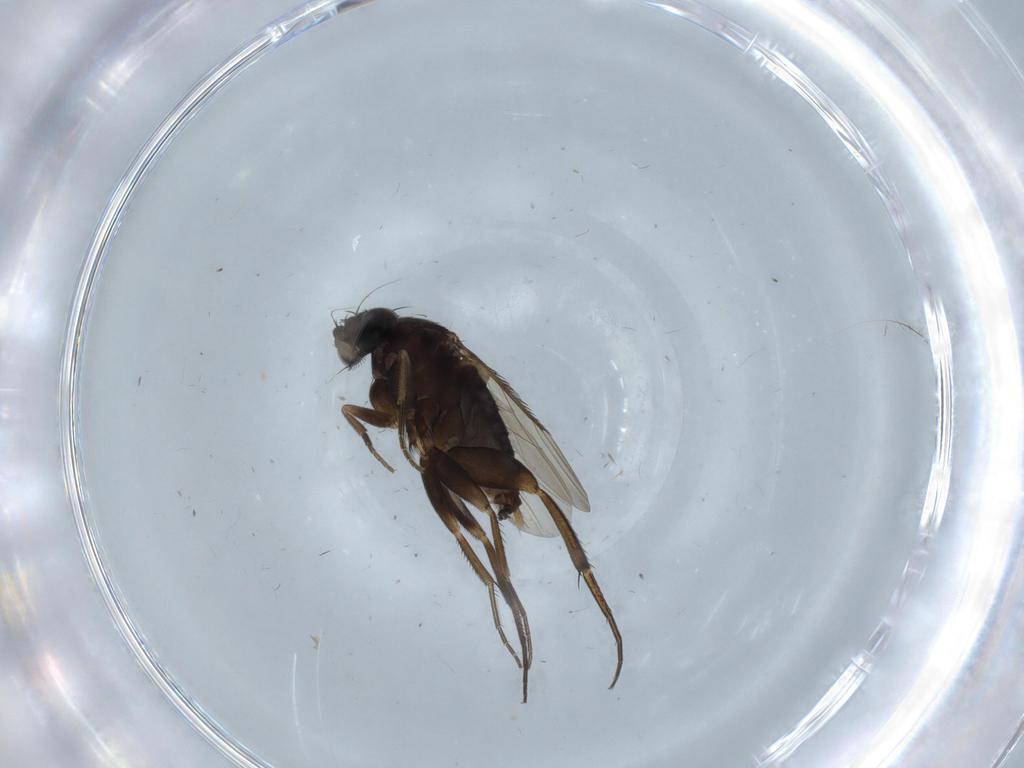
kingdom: Animalia
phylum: Arthropoda
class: Insecta
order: Diptera
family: Phoridae
